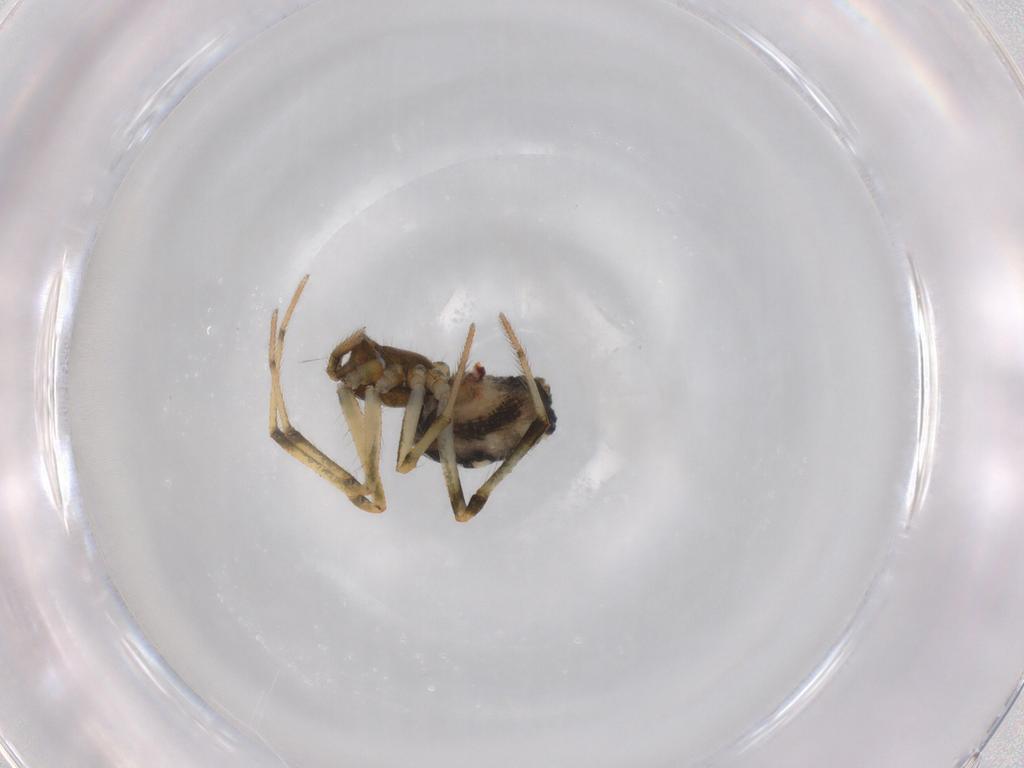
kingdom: Animalia
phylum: Arthropoda
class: Arachnida
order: Araneae
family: Theridiidae
